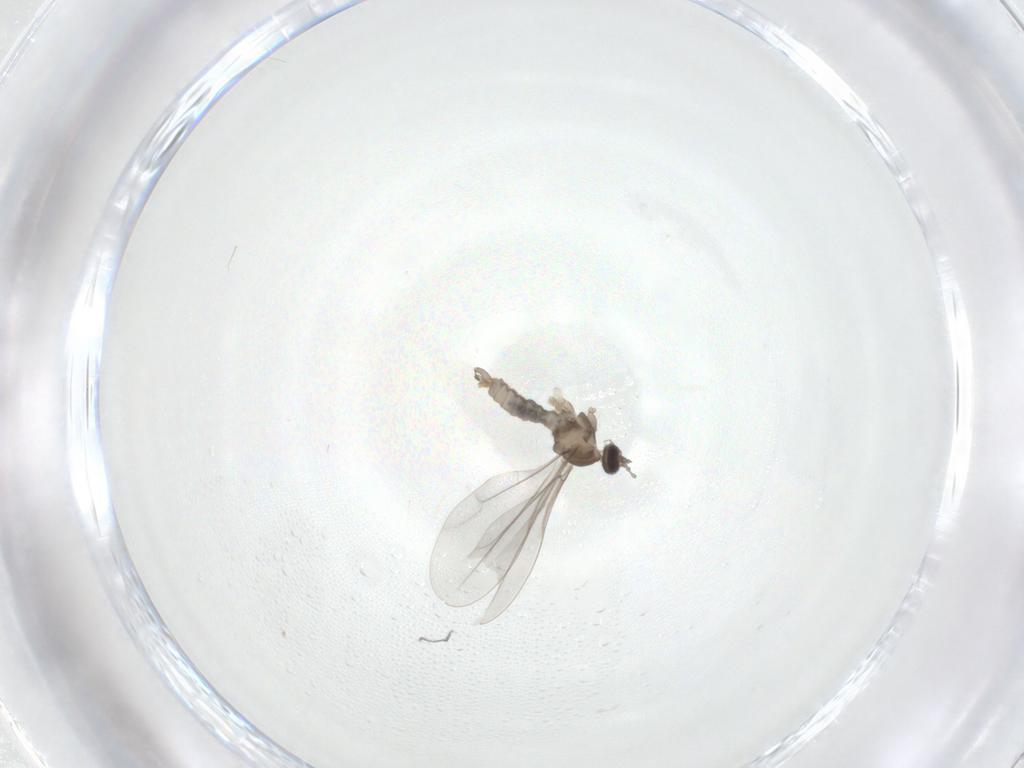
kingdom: Animalia
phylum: Arthropoda
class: Insecta
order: Diptera
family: Cecidomyiidae
